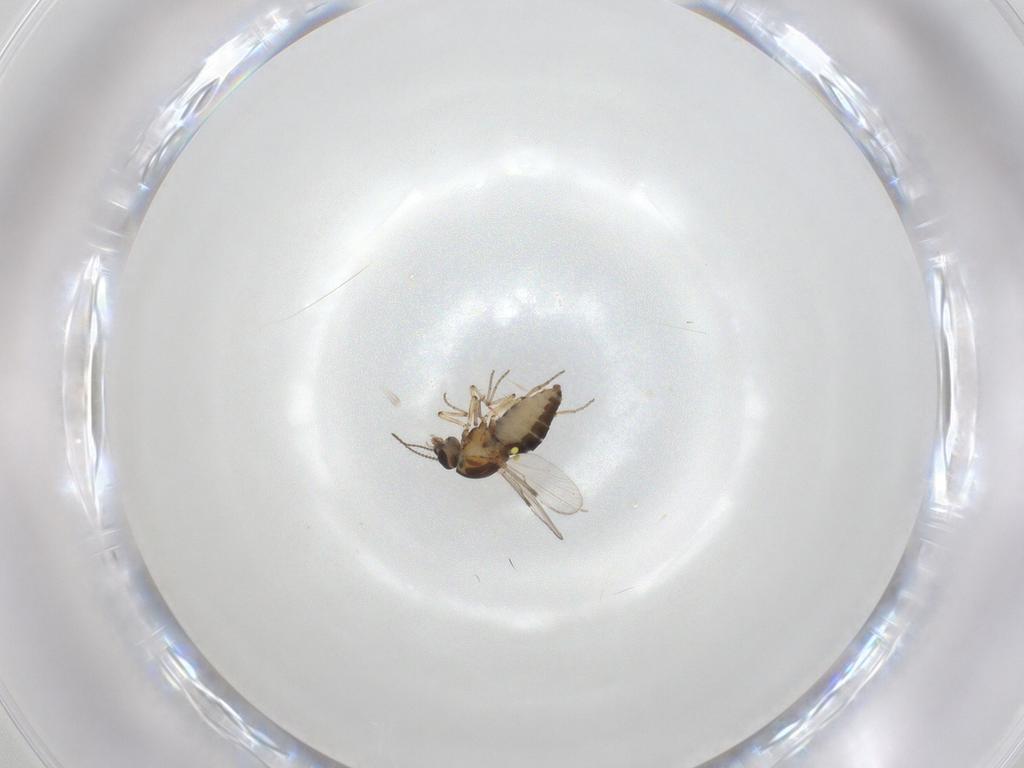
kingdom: Animalia
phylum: Arthropoda
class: Insecta
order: Diptera
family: Ceratopogonidae
